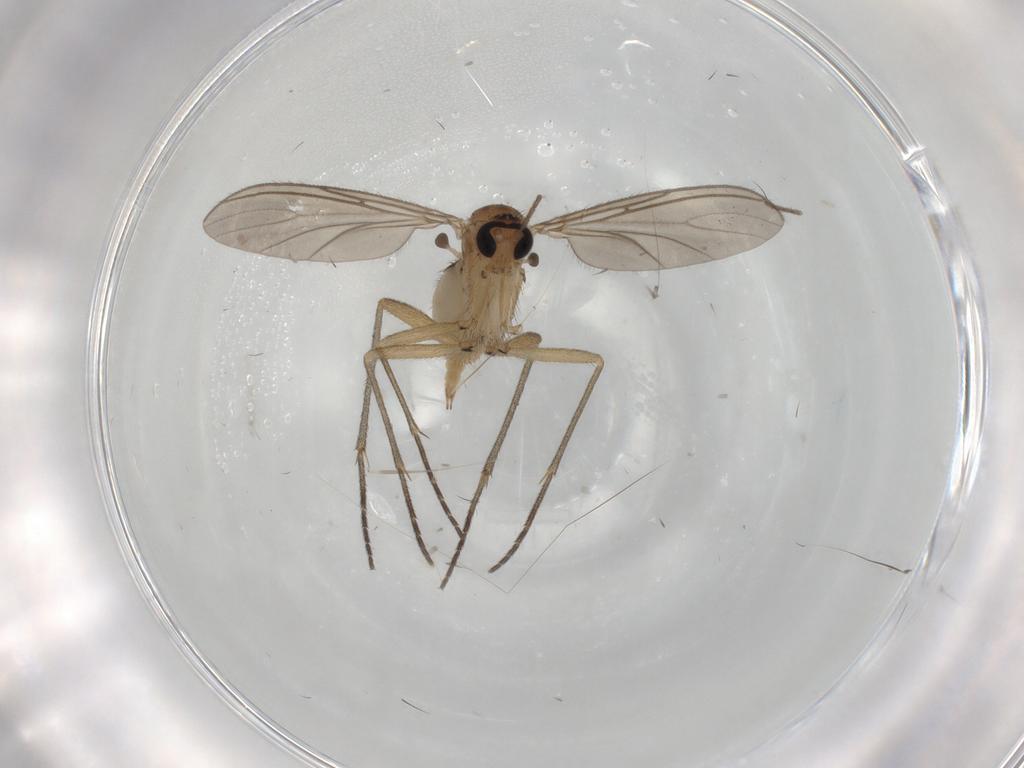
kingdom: Animalia
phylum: Arthropoda
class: Insecta
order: Diptera
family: Sciaridae
